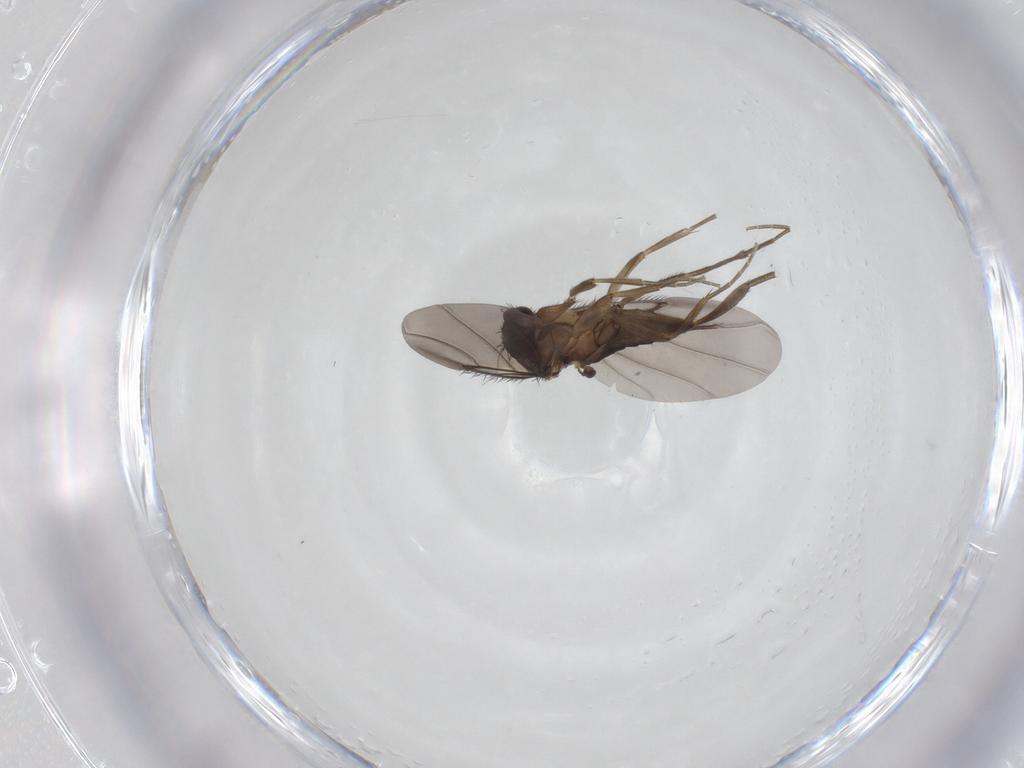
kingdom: Animalia
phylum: Arthropoda
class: Insecta
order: Diptera
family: Phoridae
